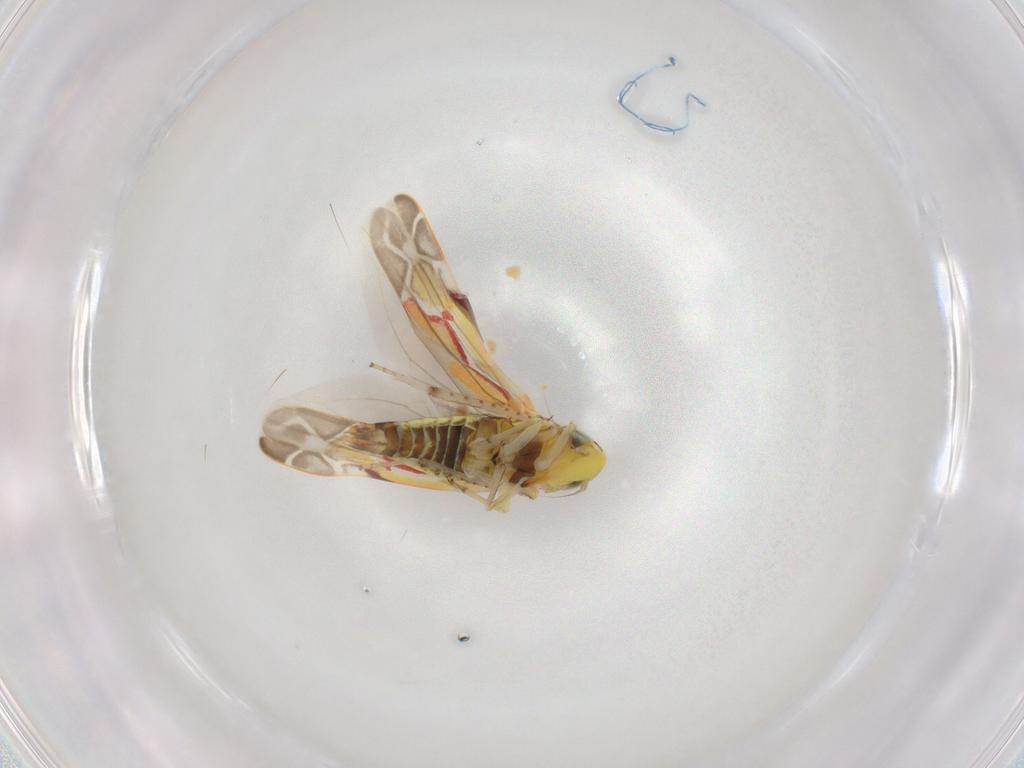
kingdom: Animalia
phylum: Arthropoda
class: Insecta
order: Hemiptera
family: Cicadellidae
